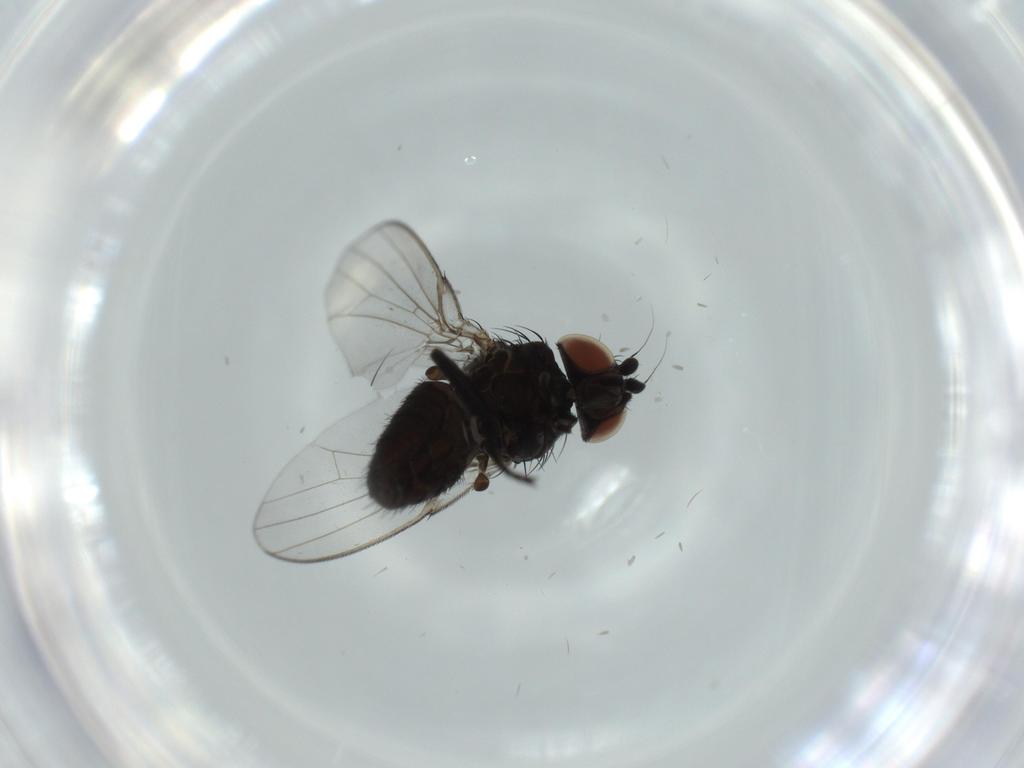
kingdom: Animalia
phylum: Arthropoda
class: Insecta
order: Diptera
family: Milichiidae
